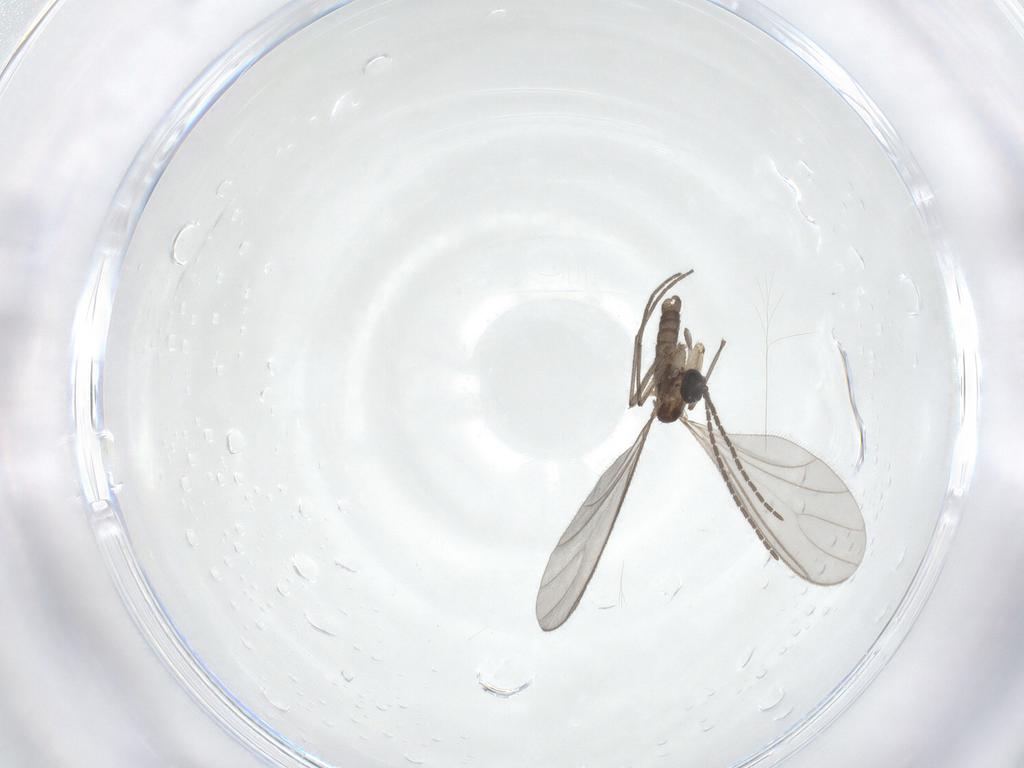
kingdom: Animalia
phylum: Arthropoda
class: Insecta
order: Diptera
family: Sciaridae
